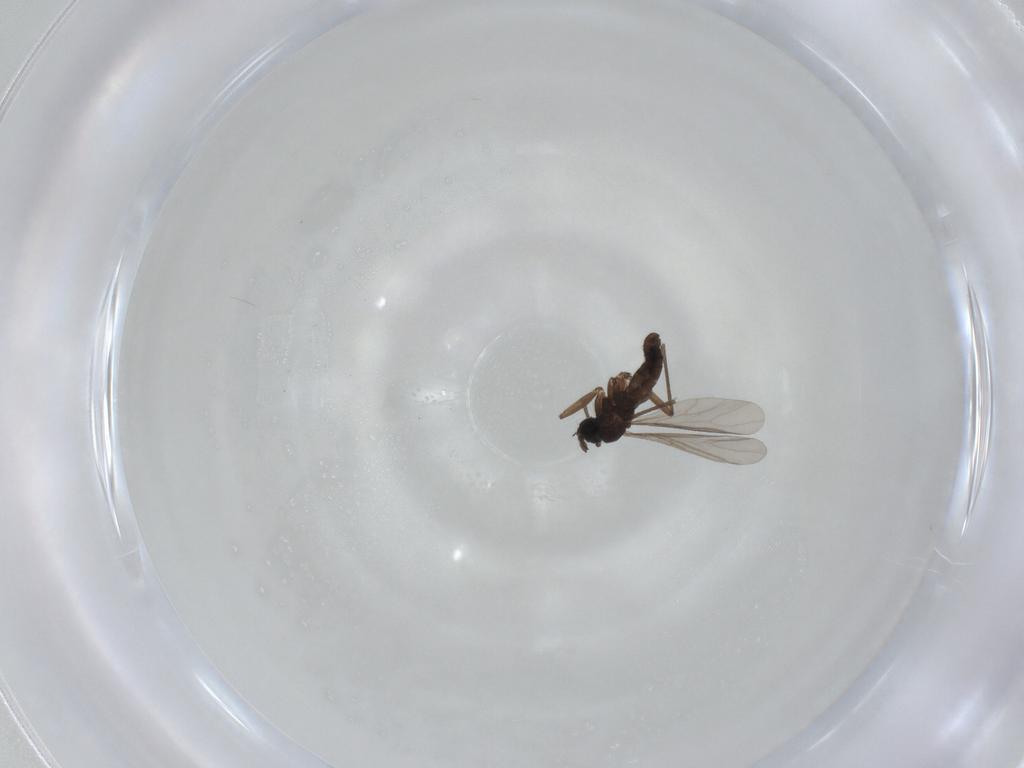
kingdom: Animalia
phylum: Arthropoda
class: Insecta
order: Diptera
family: Sciaridae
